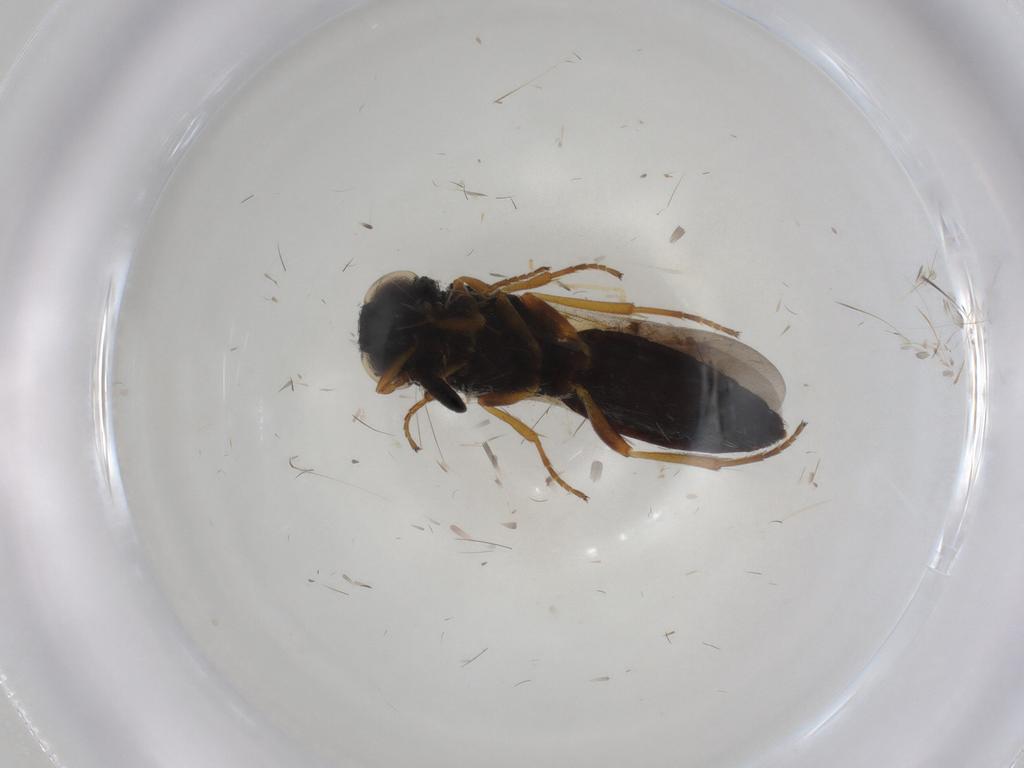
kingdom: Animalia
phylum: Arthropoda
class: Insecta
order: Hymenoptera
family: Scelionidae
